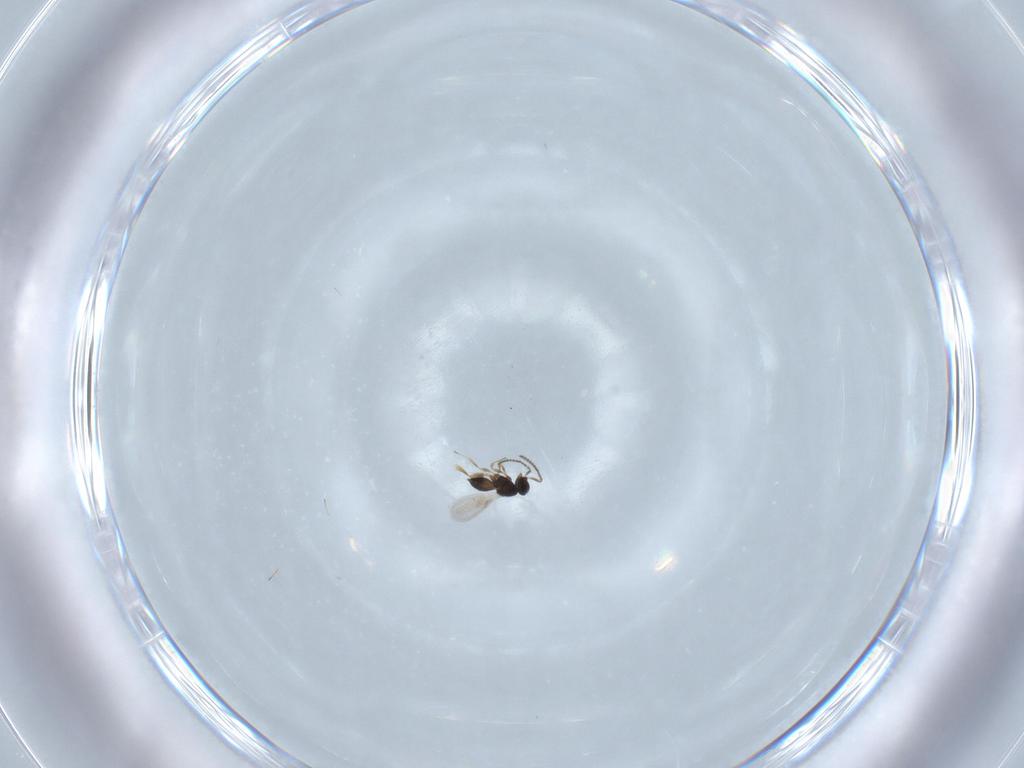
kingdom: Animalia
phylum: Arthropoda
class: Insecta
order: Hymenoptera
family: Scelionidae
